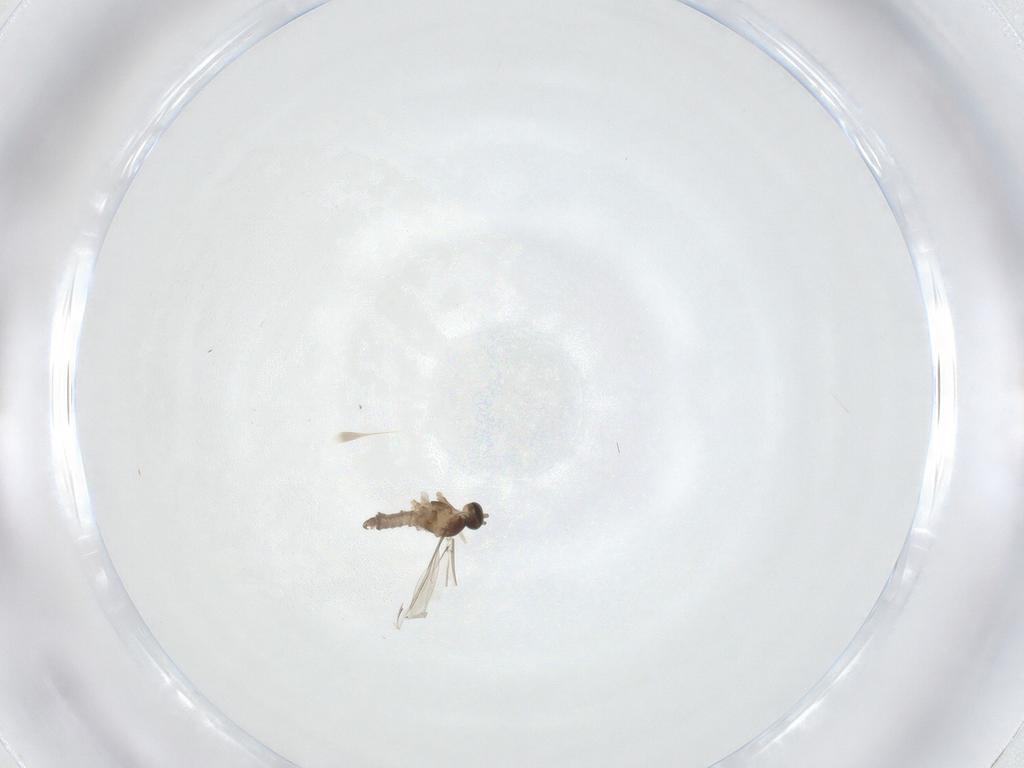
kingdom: Animalia
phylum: Arthropoda
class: Insecta
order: Diptera
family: Cecidomyiidae
